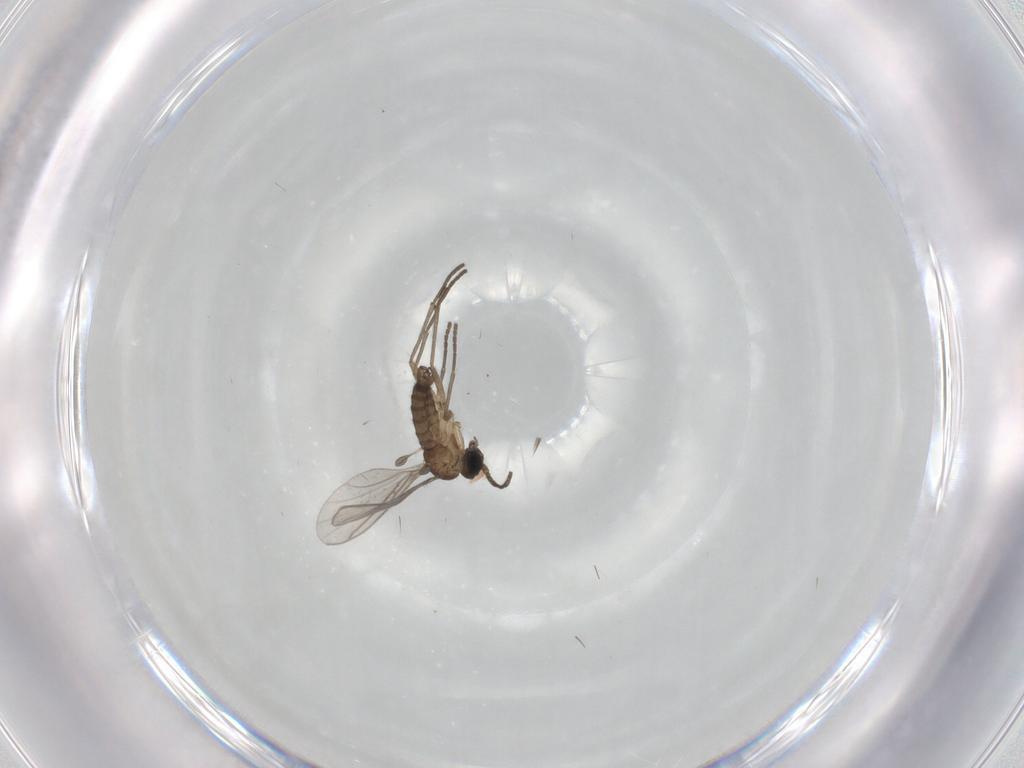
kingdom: Animalia
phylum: Arthropoda
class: Insecta
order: Diptera
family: Sciaridae
